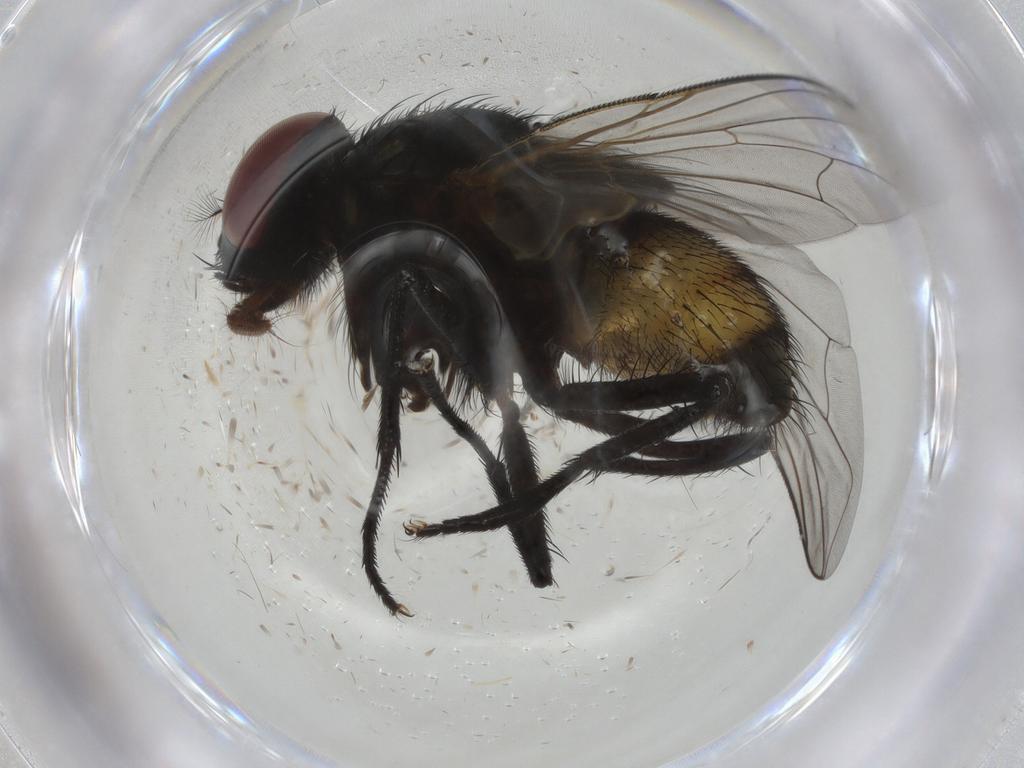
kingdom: Animalia
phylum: Arthropoda
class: Insecta
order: Diptera
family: Muscidae
